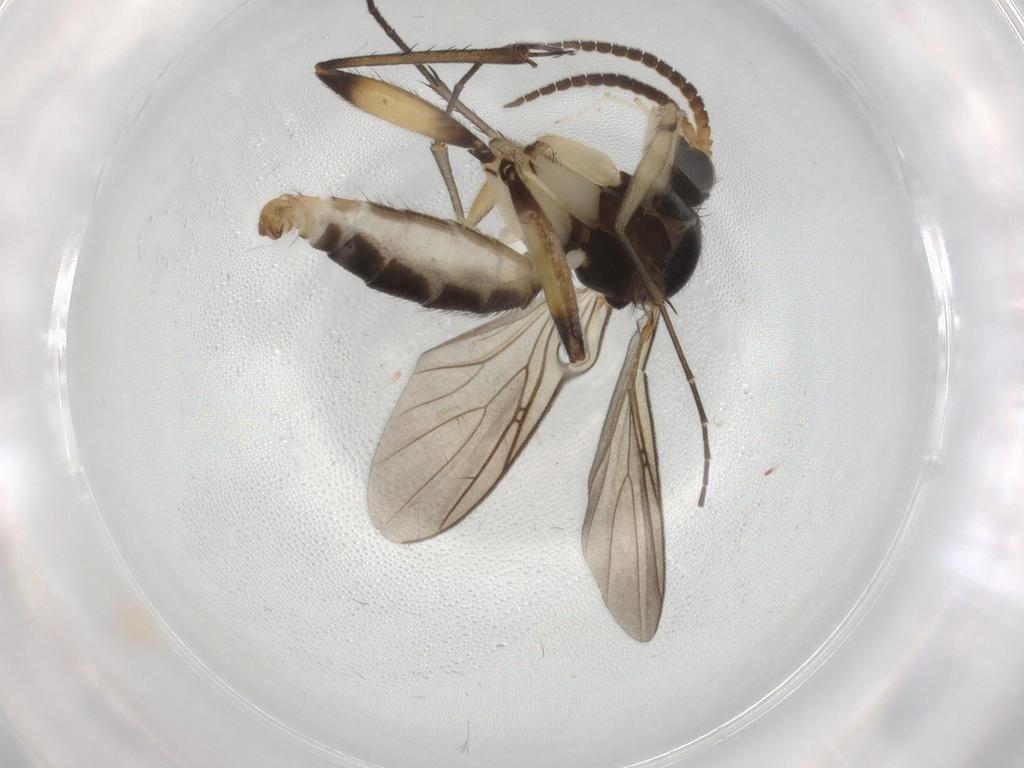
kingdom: Animalia
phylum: Arthropoda
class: Insecta
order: Diptera
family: Mycetophilidae
